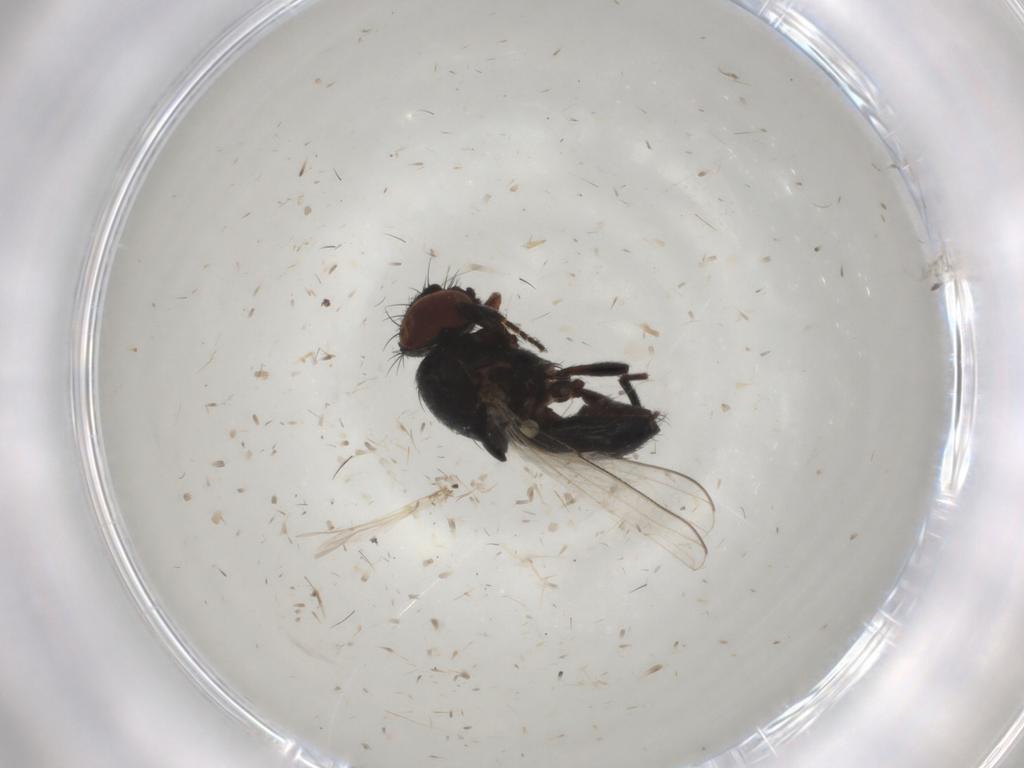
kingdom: Animalia
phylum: Arthropoda
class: Insecta
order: Diptera
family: Milichiidae
